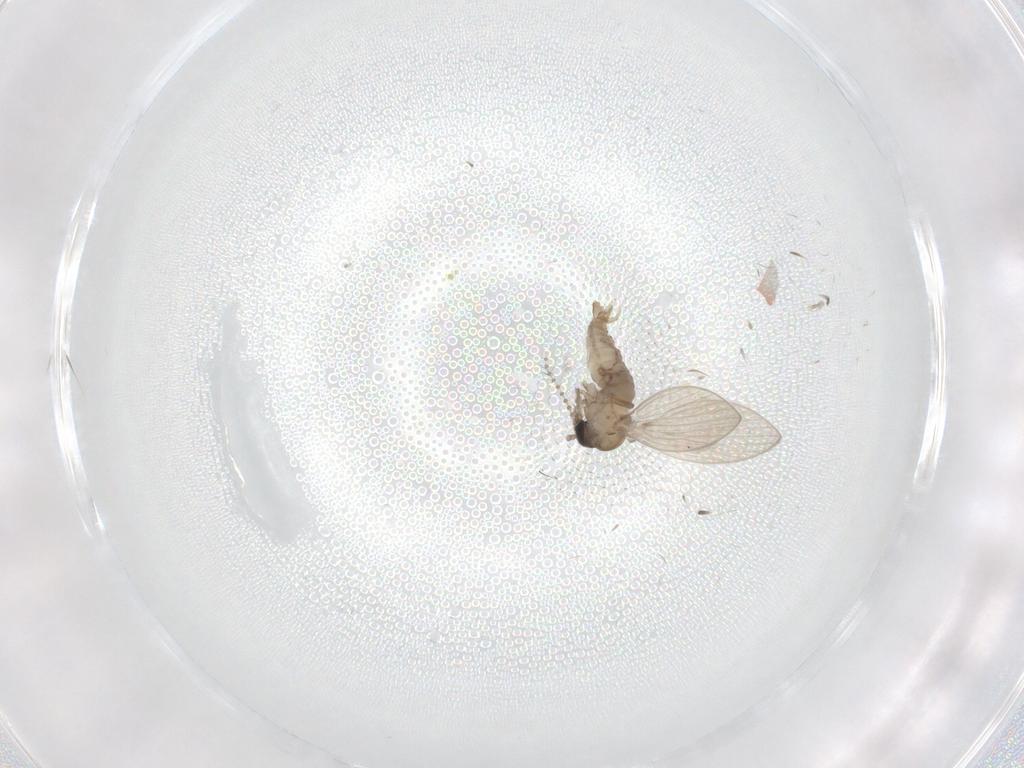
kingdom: Animalia
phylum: Arthropoda
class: Insecta
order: Diptera
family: Psychodidae
